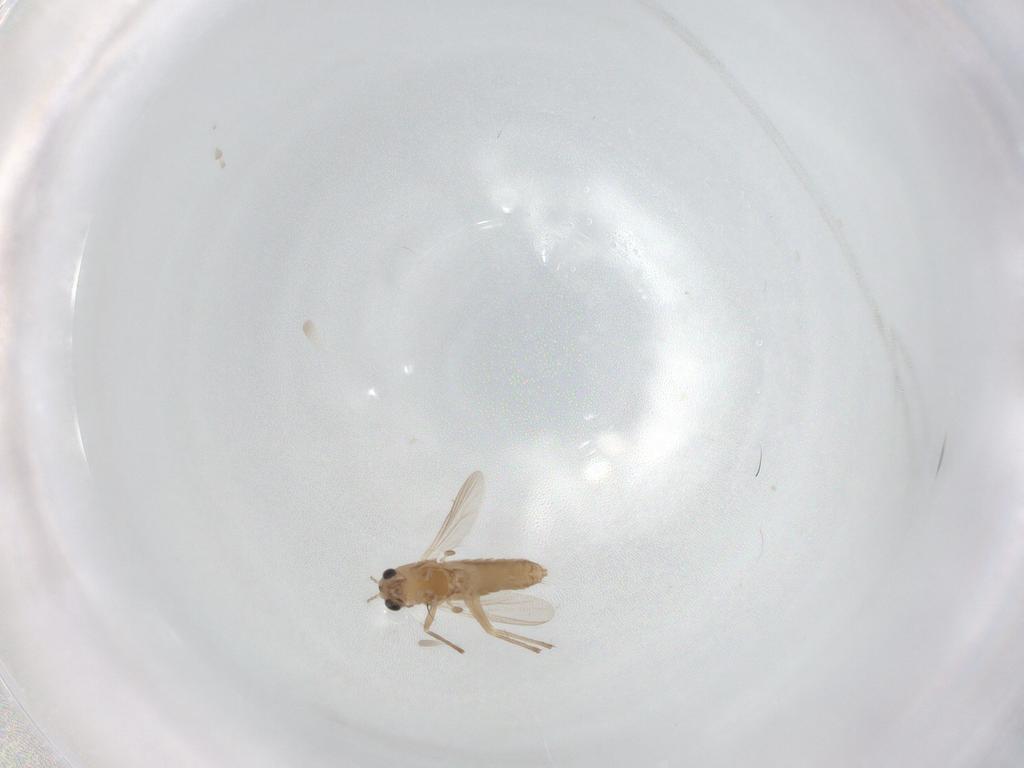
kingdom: Animalia
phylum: Arthropoda
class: Insecta
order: Diptera
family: Chironomidae
